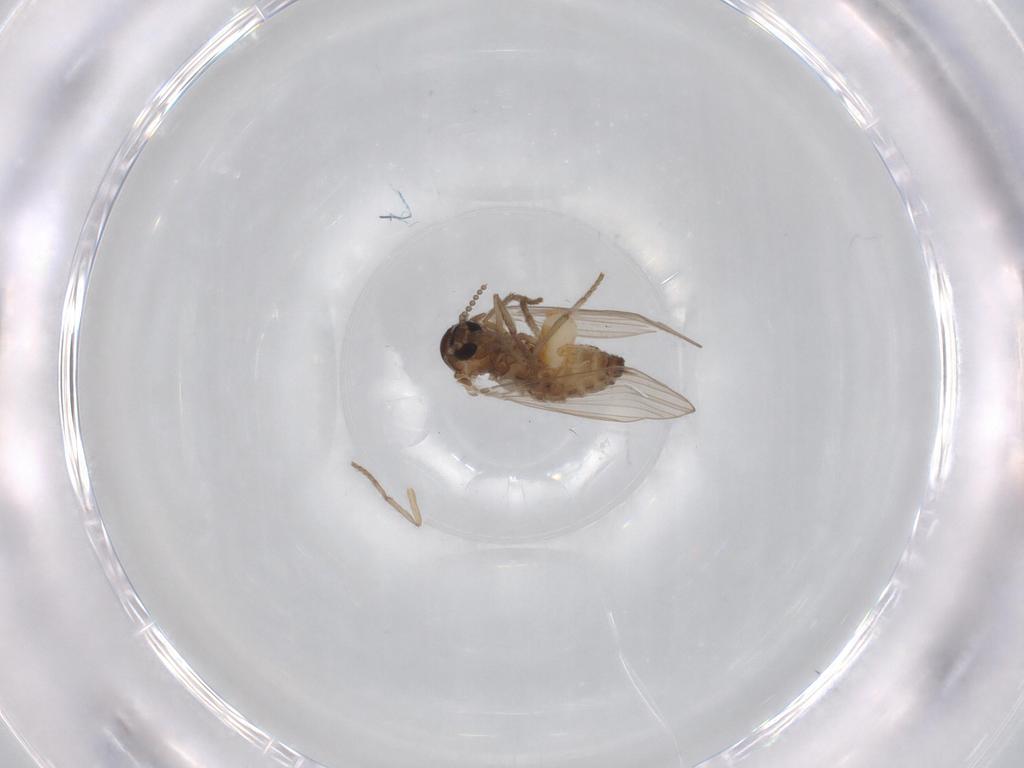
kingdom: Animalia
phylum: Arthropoda
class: Insecta
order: Diptera
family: Psychodidae
